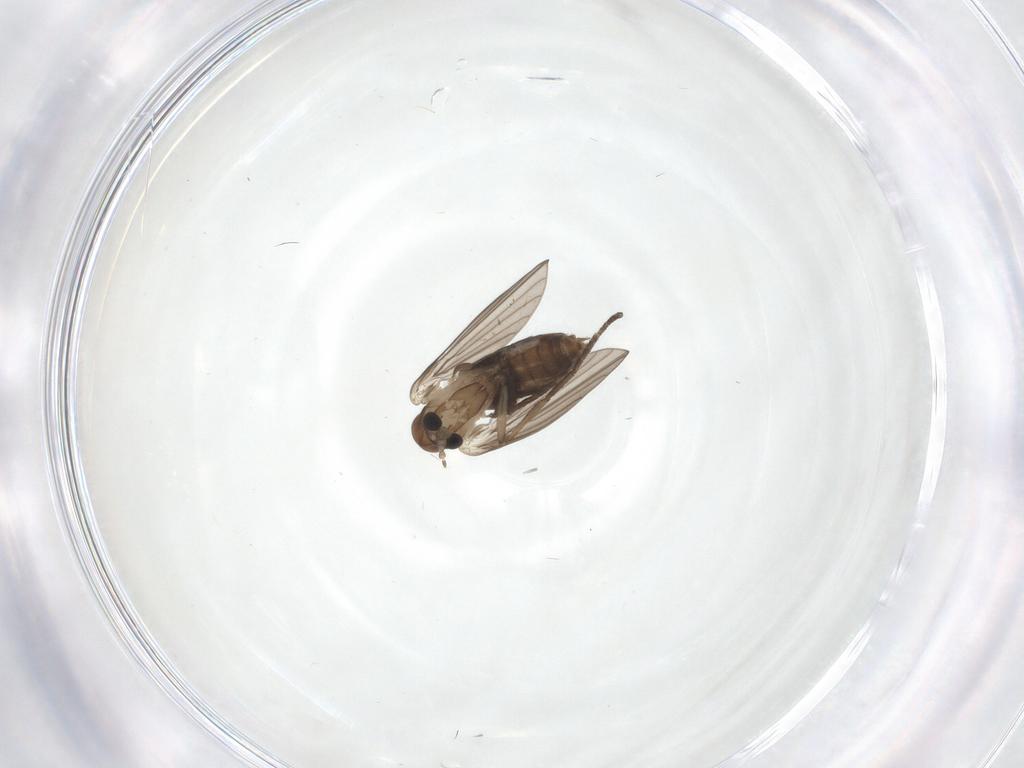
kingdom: Animalia
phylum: Arthropoda
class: Insecta
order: Diptera
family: Psychodidae
